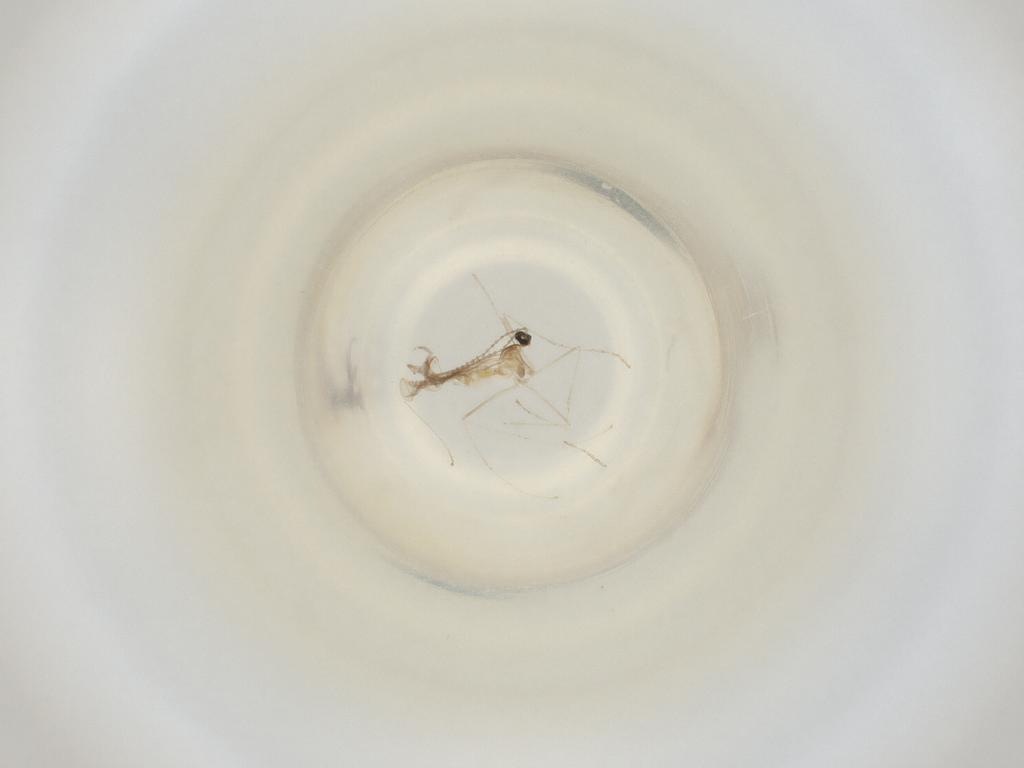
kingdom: Animalia
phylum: Arthropoda
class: Insecta
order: Diptera
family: Cecidomyiidae
